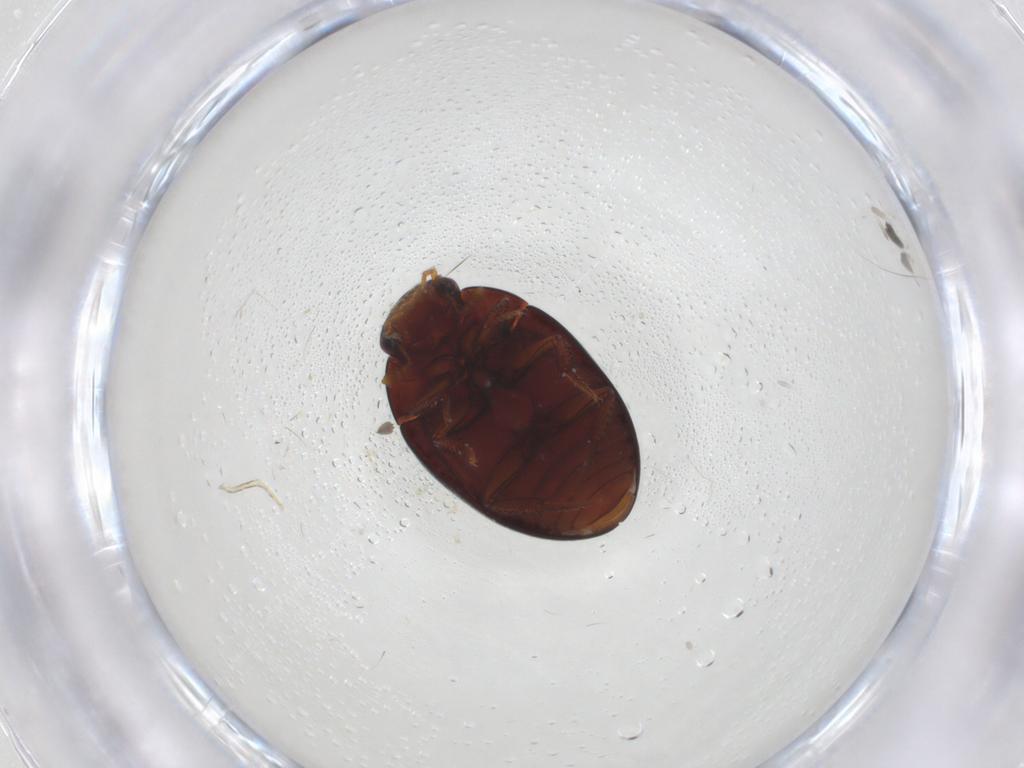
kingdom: Animalia
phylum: Arthropoda
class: Insecta
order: Coleoptera
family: Hydrophilidae
